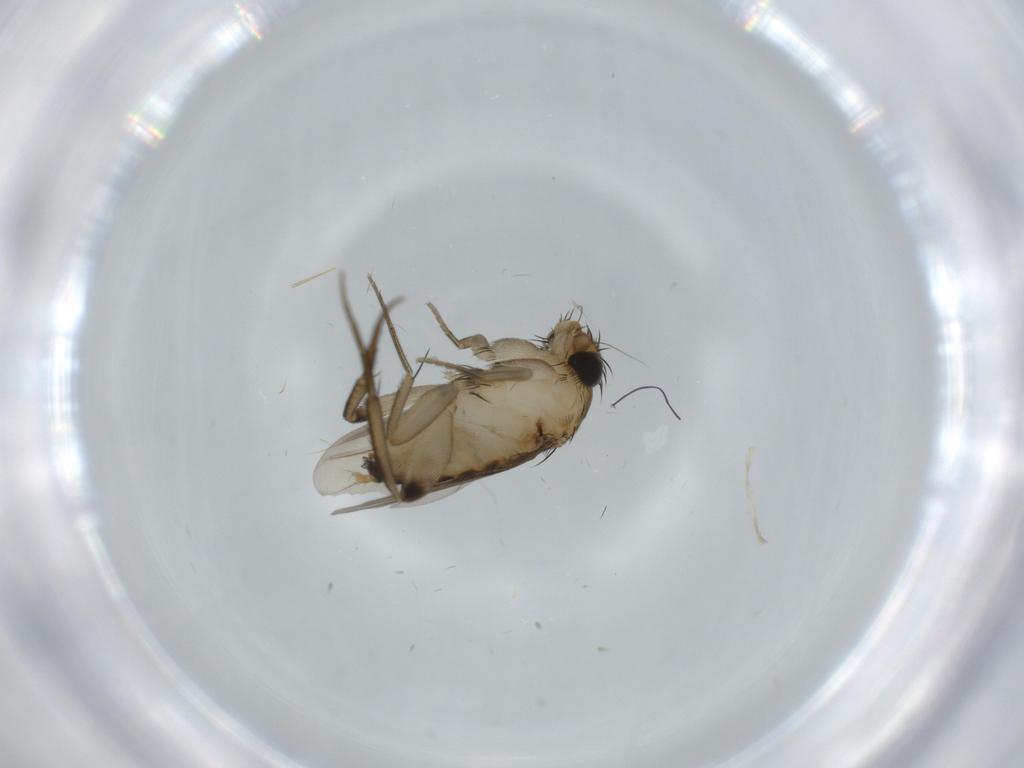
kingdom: Animalia
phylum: Arthropoda
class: Insecta
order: Diptera
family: Phoridae
